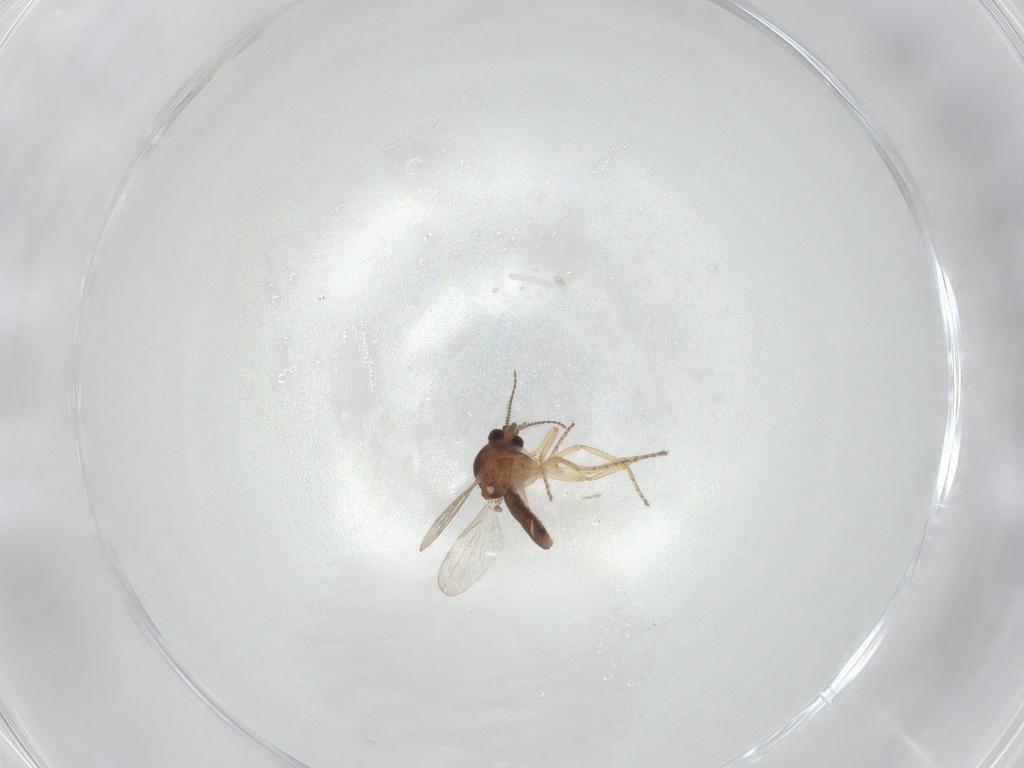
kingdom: Animalia
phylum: Arthropoda
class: Insecta
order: Diptera
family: Ceratopogonidae
